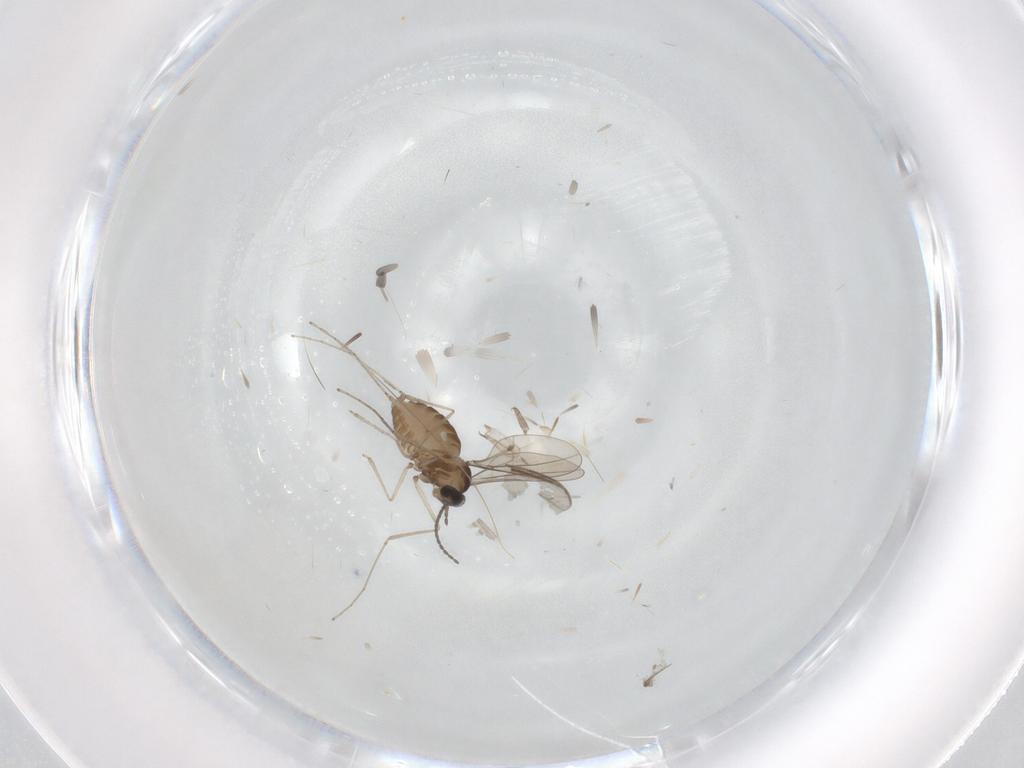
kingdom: Animalia
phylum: Arthropoda
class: Insecta
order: Diptera
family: Cecidomyiidae
